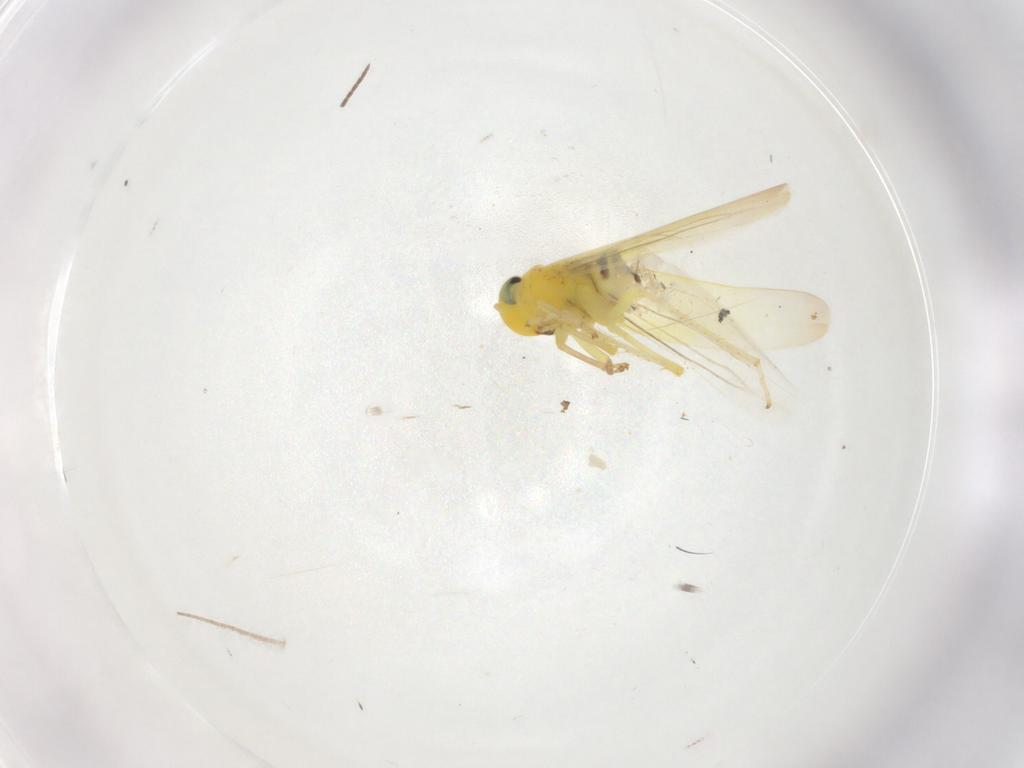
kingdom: Animalia
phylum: Arthropoda
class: Insecta
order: Hemiptera
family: Cicadellidae
